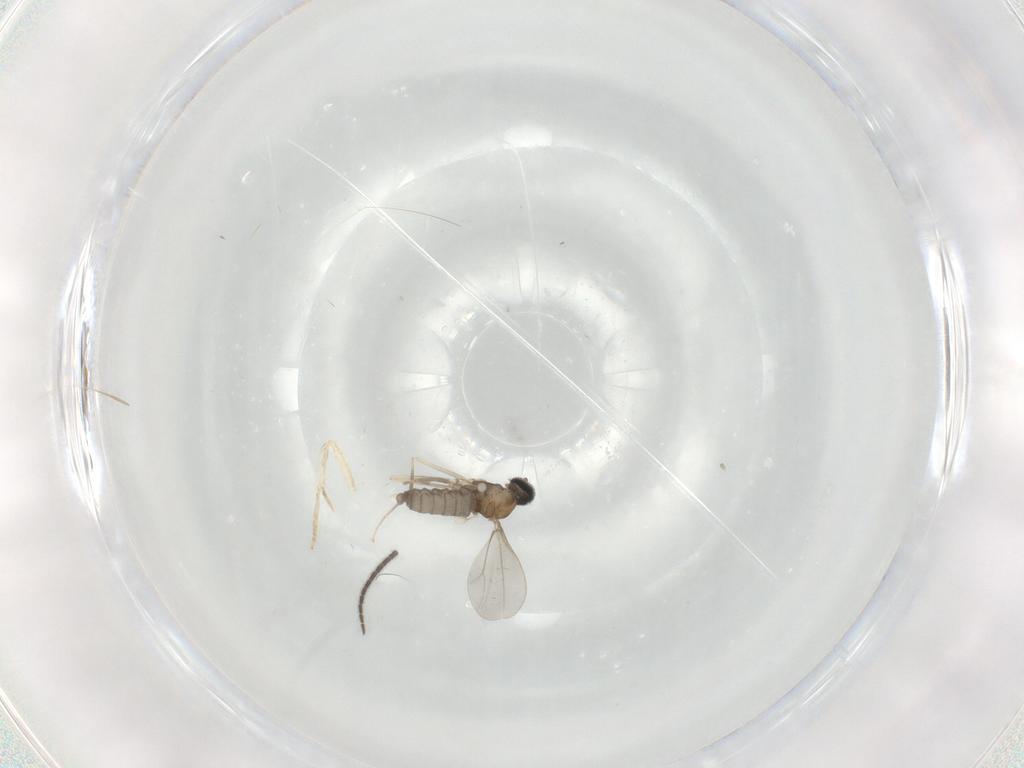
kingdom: Animalia
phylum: Arthropoda
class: Insecta
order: Diptera
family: Cecidomyiidae
